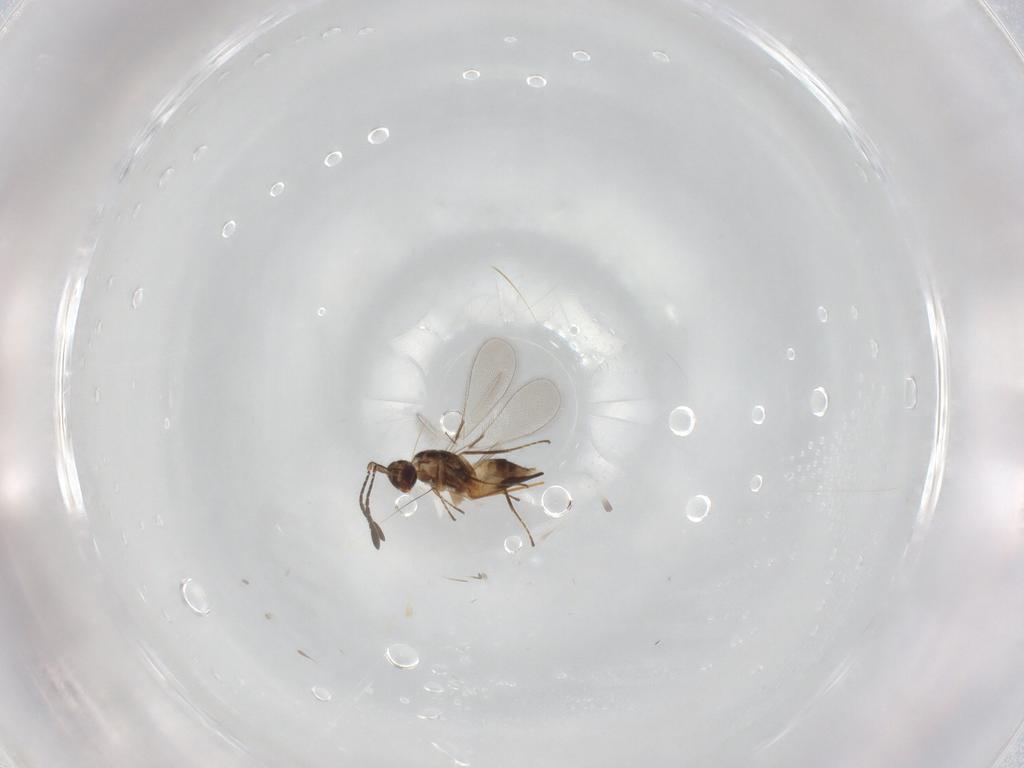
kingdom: Animalia
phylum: Arthropoda
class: Insecta
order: Hymenoptera
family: Mymaridae
